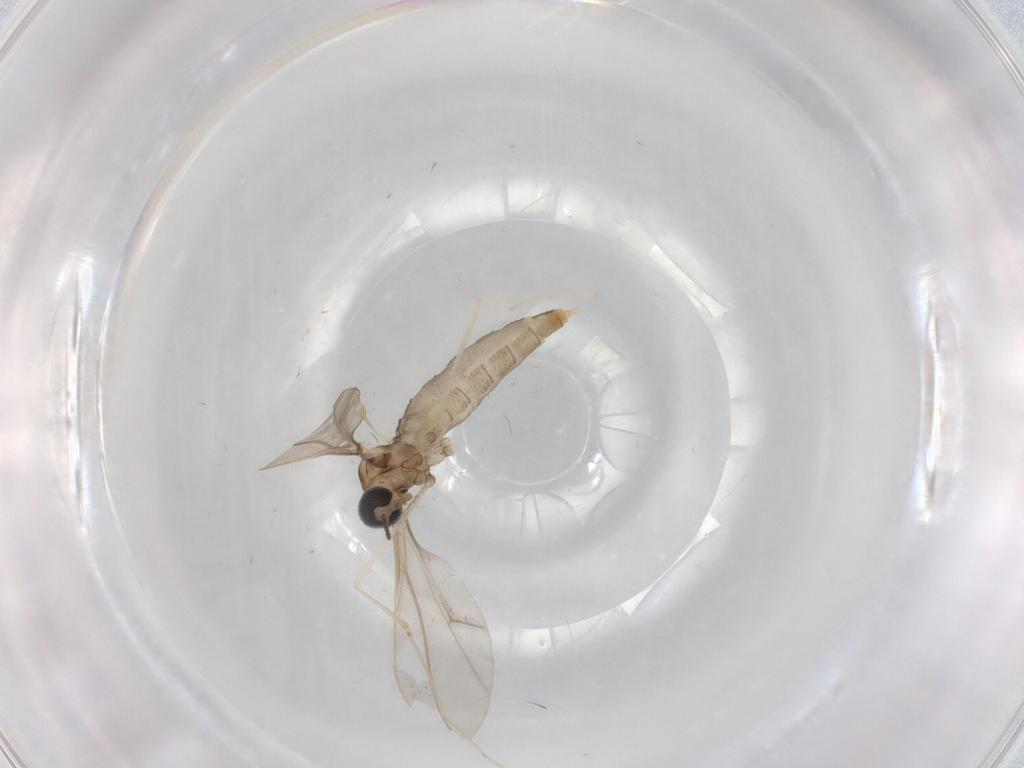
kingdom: Animalia
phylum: Arthropoda
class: Insecta
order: Diptera
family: Cecidomyiidae
